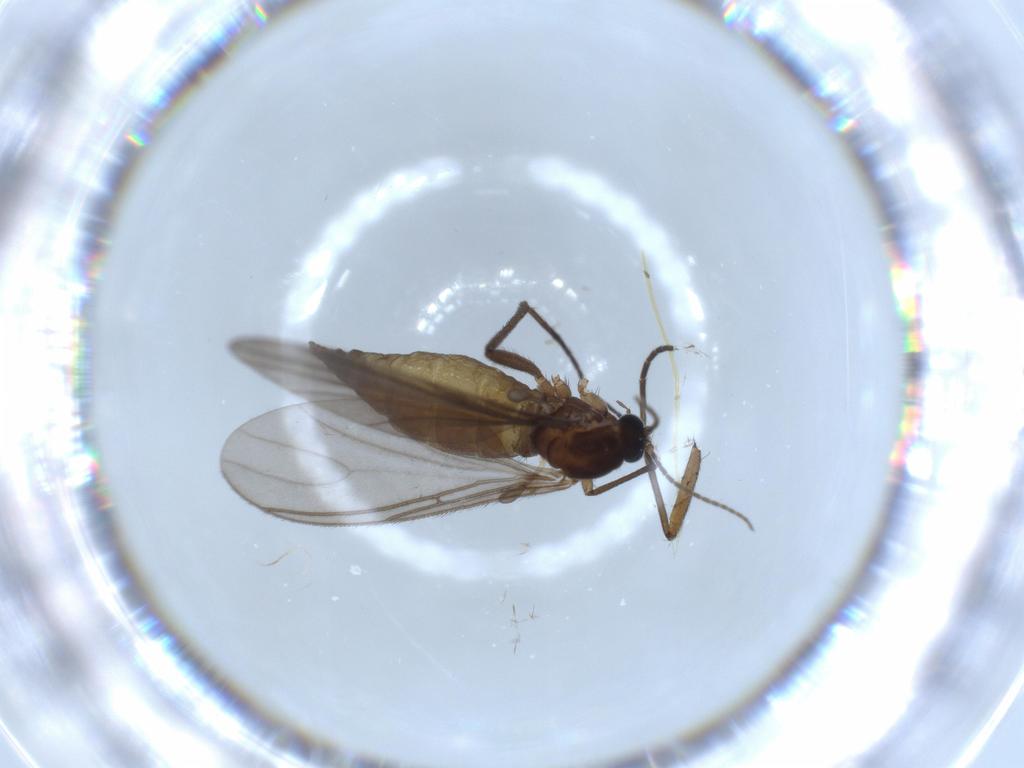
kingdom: Animalia
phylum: Arthropoda
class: Insecta
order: Diptera
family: Sciaridae
